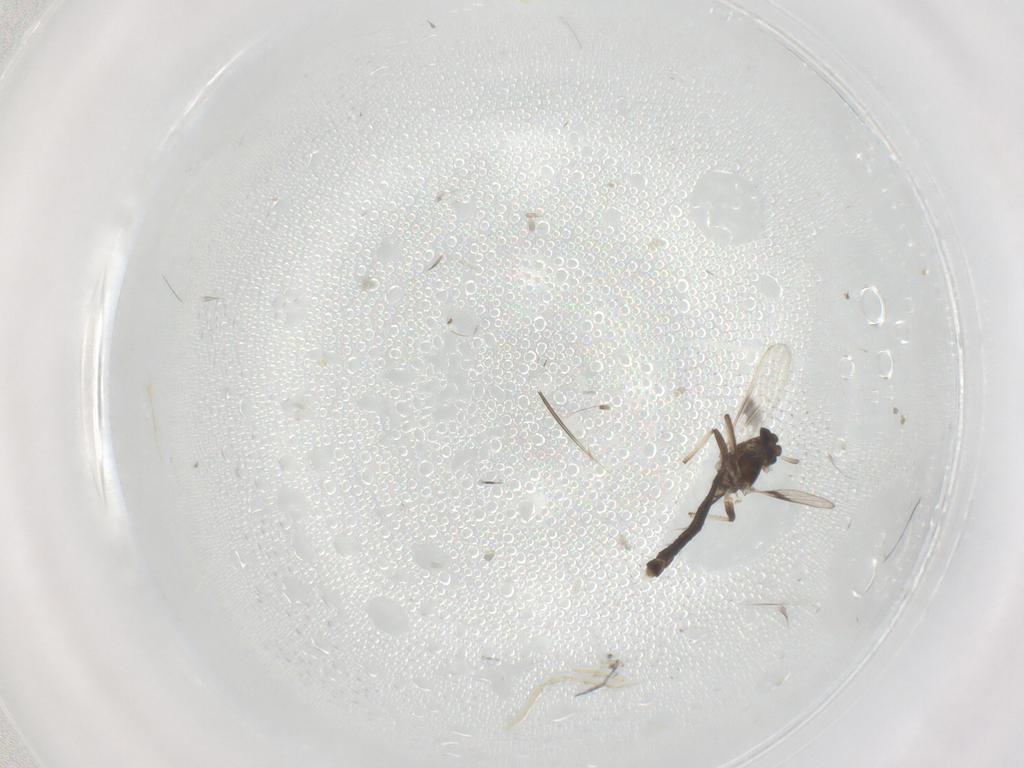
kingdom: Animalia
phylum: Arthropoda
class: Insecta
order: Diptera
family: Chironomidae
